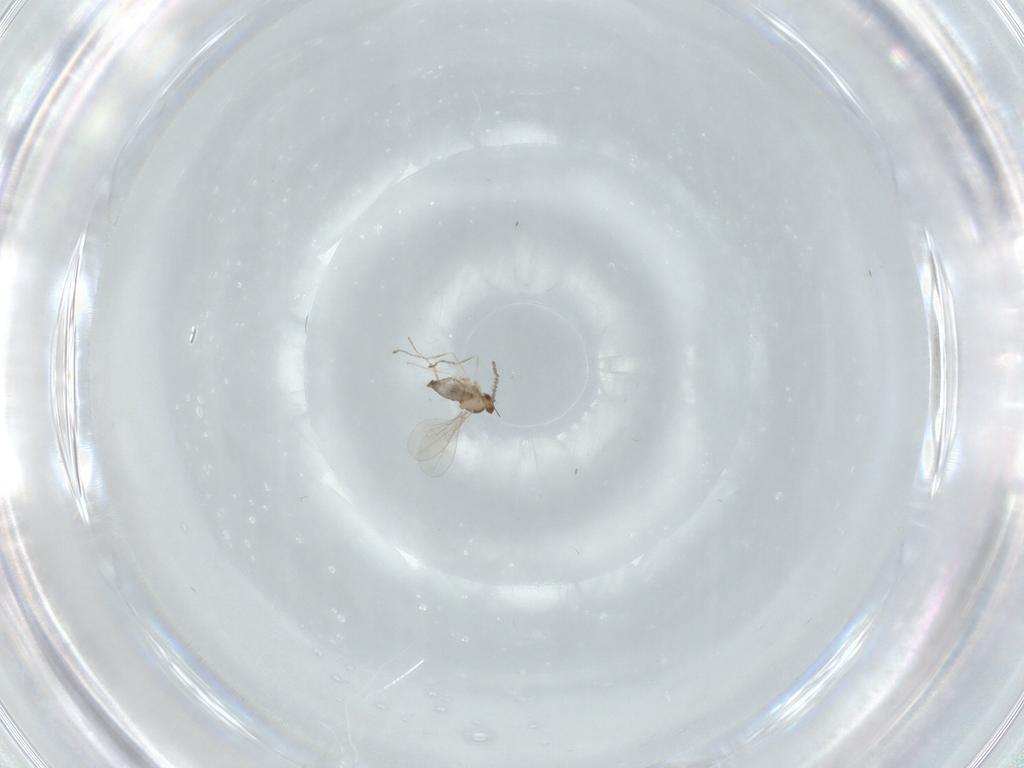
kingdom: Animalia
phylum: Arthropoda
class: Insecta
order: Diptera
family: Cecidomyiidae
